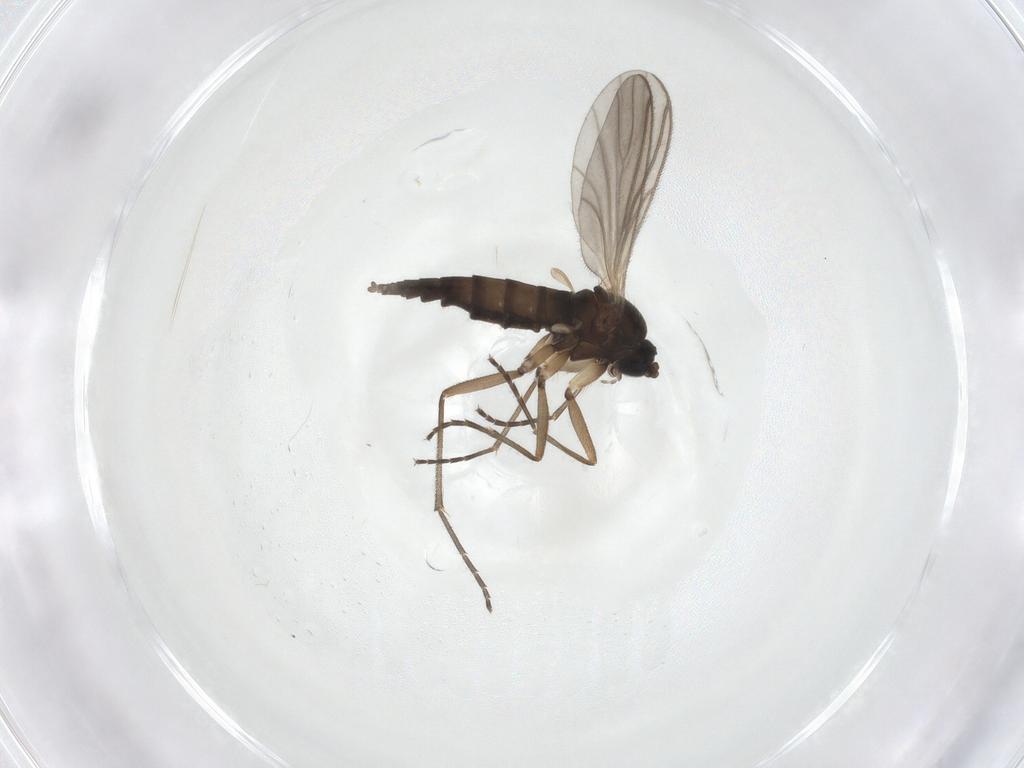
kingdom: Animalia
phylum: Arthropoda
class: Insecta
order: Diptera
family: Sciaridae
